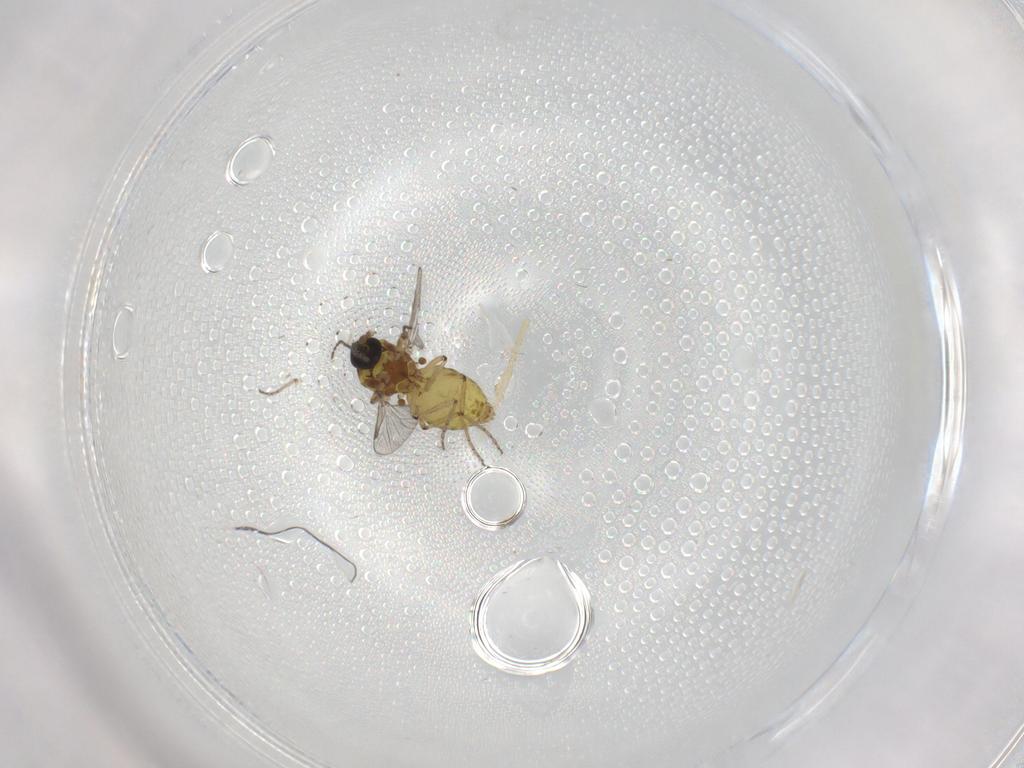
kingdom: Animalia
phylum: Arthropoda
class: Insecta
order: Diptera
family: Ceratopogonidae
